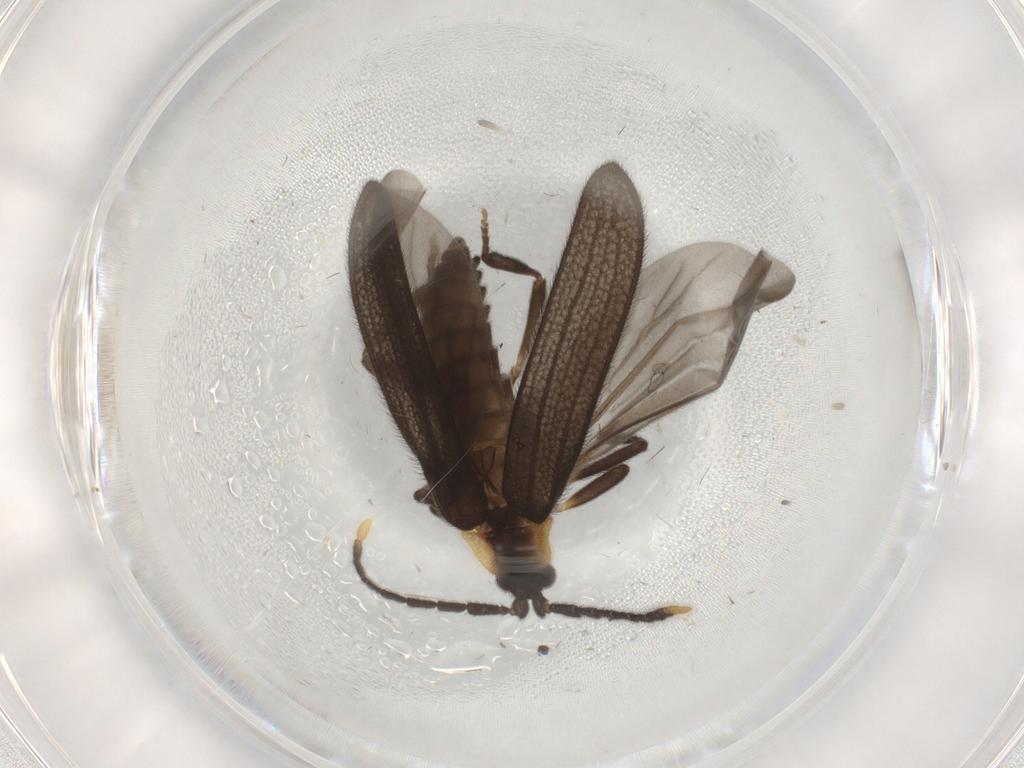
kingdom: Animalia
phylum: Arthropoda
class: Insecta
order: Coleoptera
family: Lycidae
